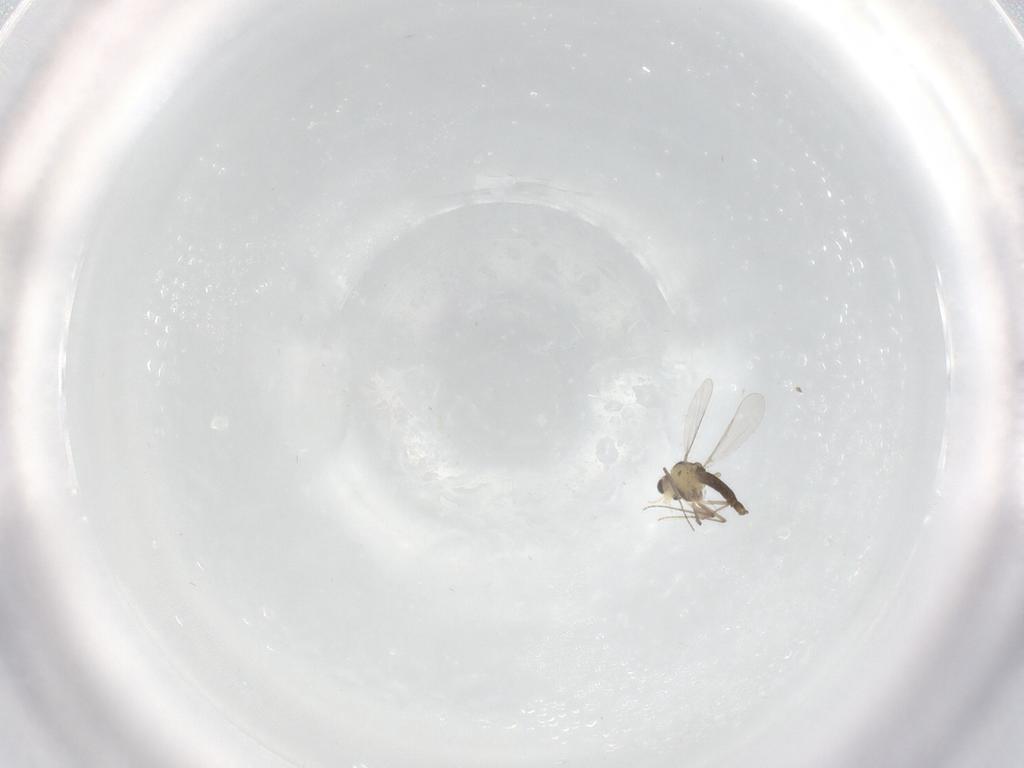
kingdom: Animalia
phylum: Arthropoda
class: Insecta
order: Diptera
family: Chironomidae
